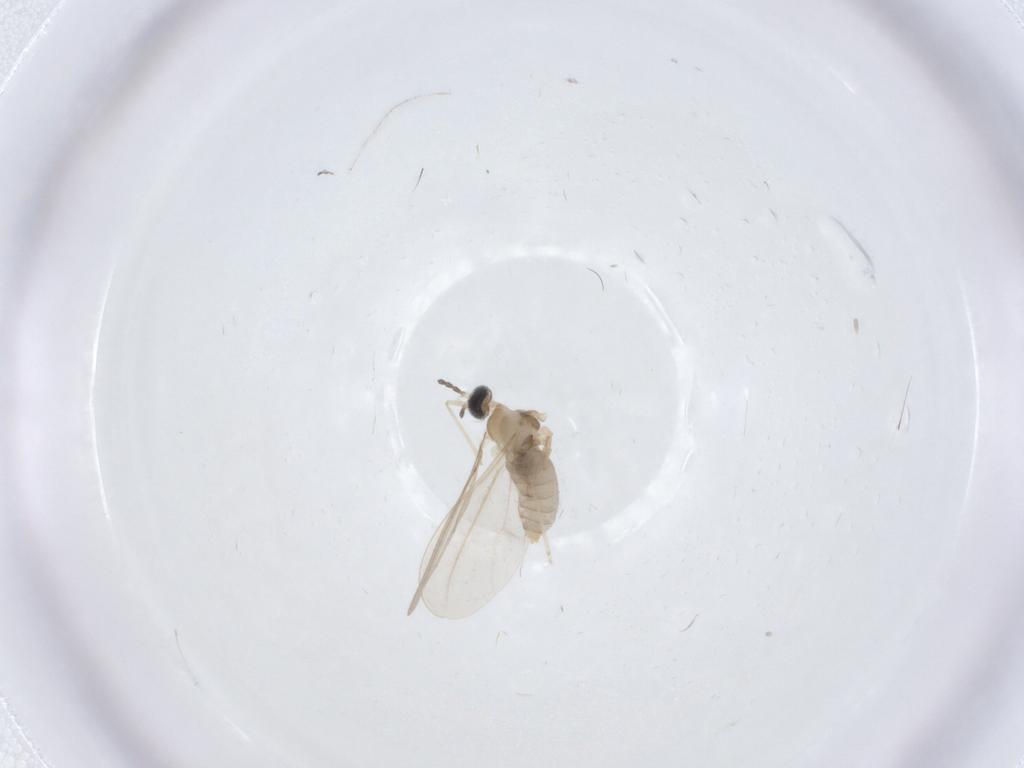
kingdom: Animalia
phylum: Arthropoda
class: Insecta
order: Diptera
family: Cecidomyiidae
